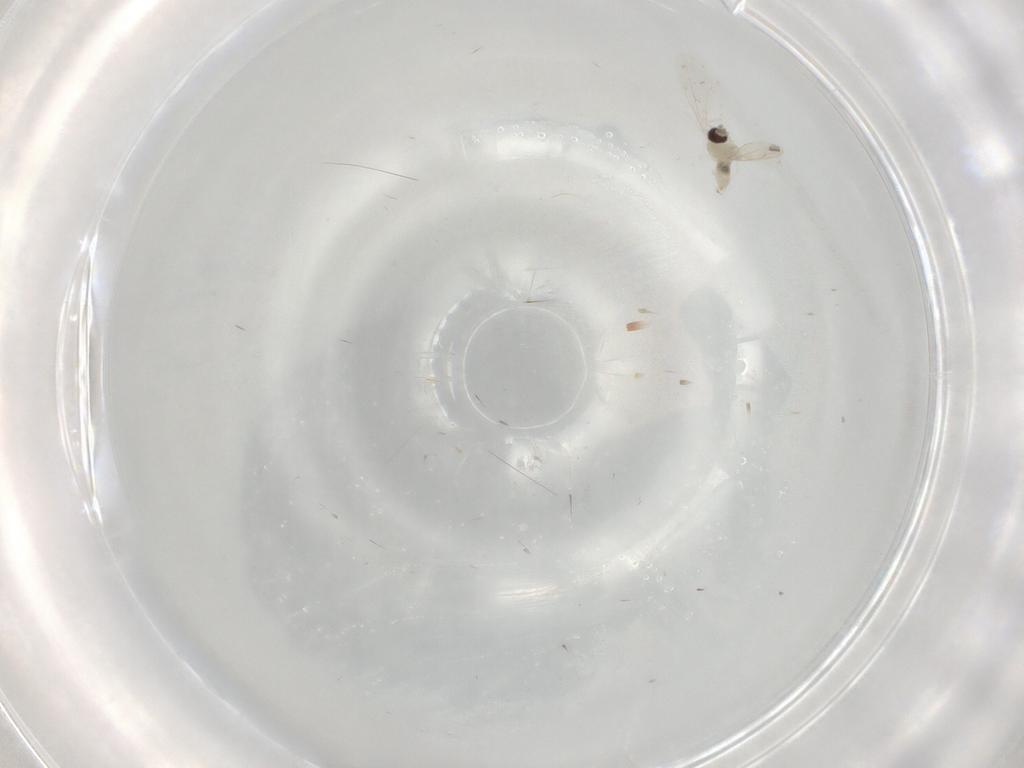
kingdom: Animalia
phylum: Arthropoda
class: Insecta
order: Diptera
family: Cecidomyiidae
